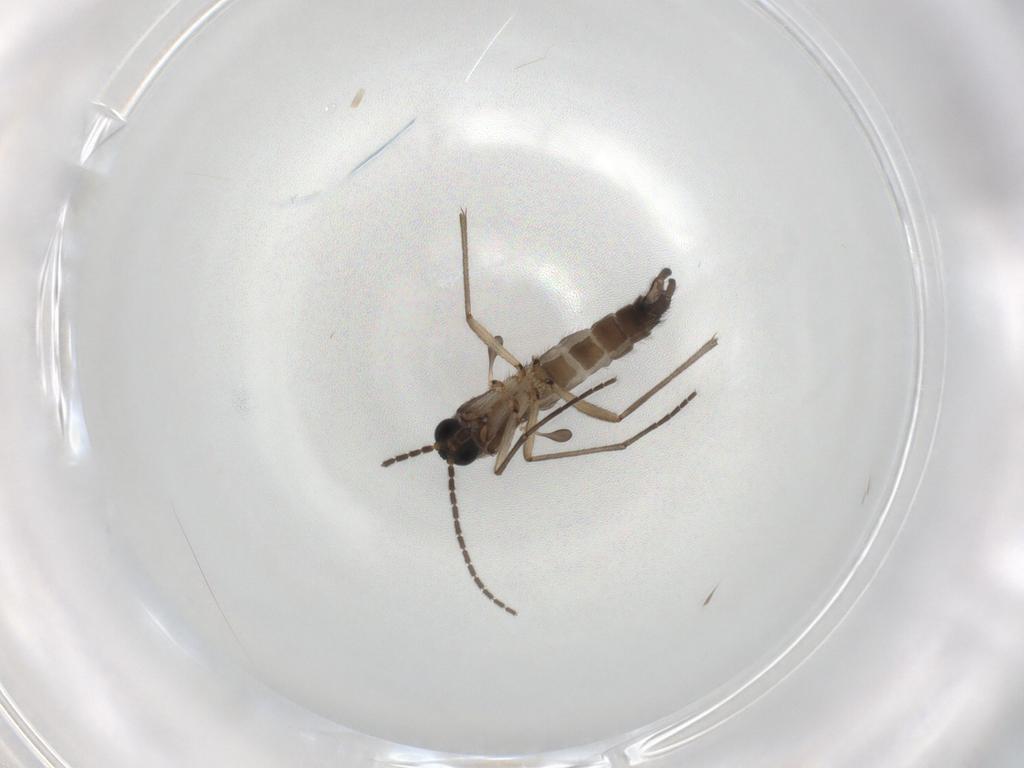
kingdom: Animalia
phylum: Arthropoda
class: Insecta
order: Diptera
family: Sciaridae
